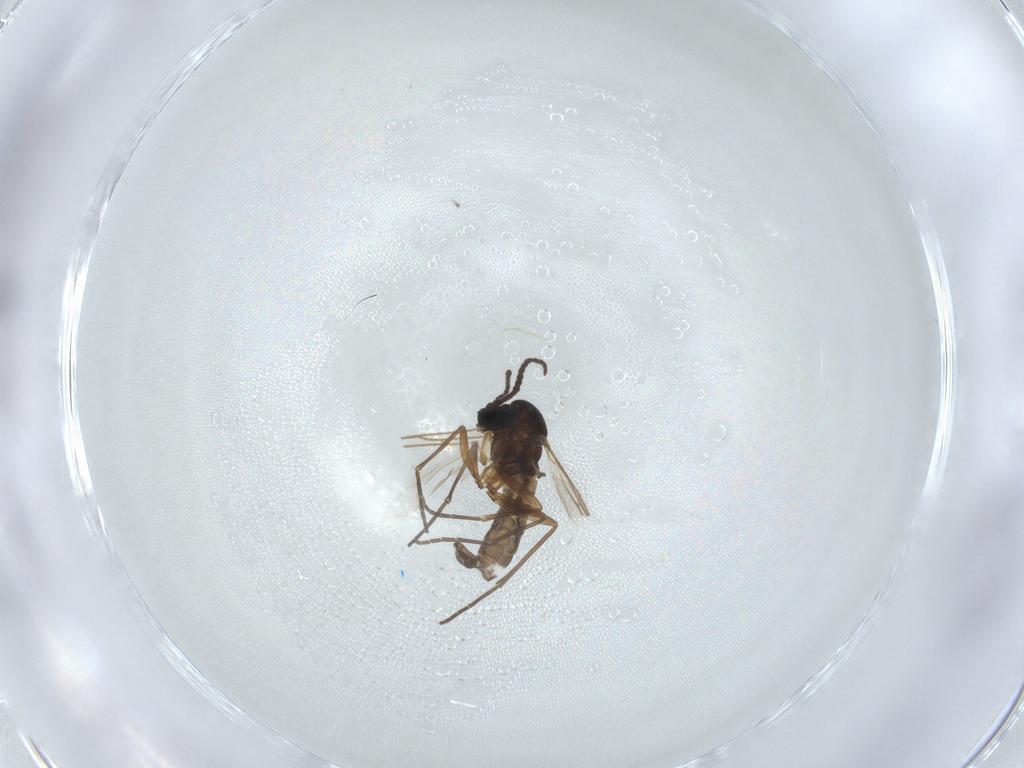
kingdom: Animalia
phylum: Arthropoda
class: Insecta
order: Diptera
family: Sciaridae
